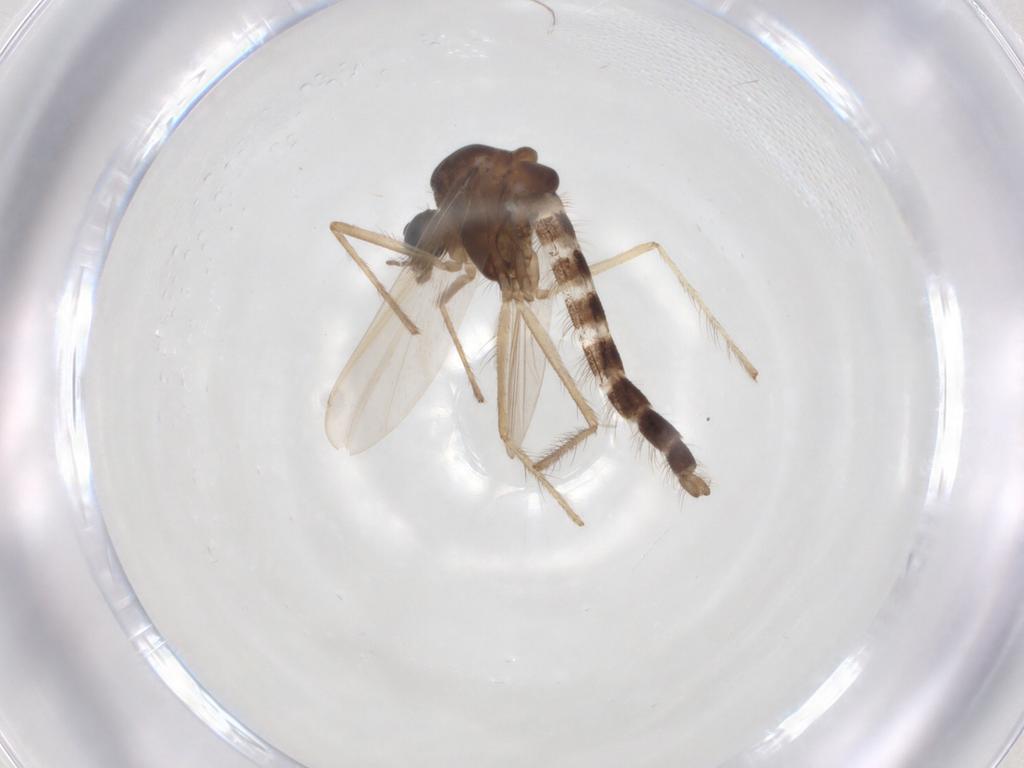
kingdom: Animalia
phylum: Arthropoda
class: Insecta
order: Diptera
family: Chironomidae
